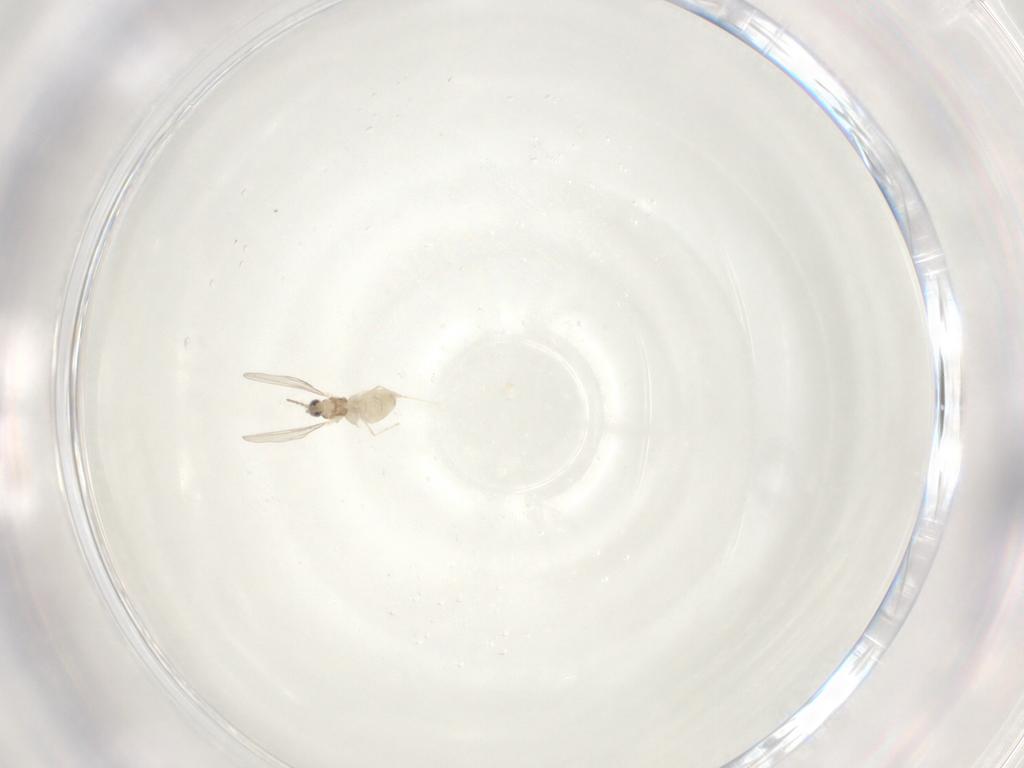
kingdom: Animalia
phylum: Arthropoda
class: Insecta
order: Diptera
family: Cecidomyiidae
